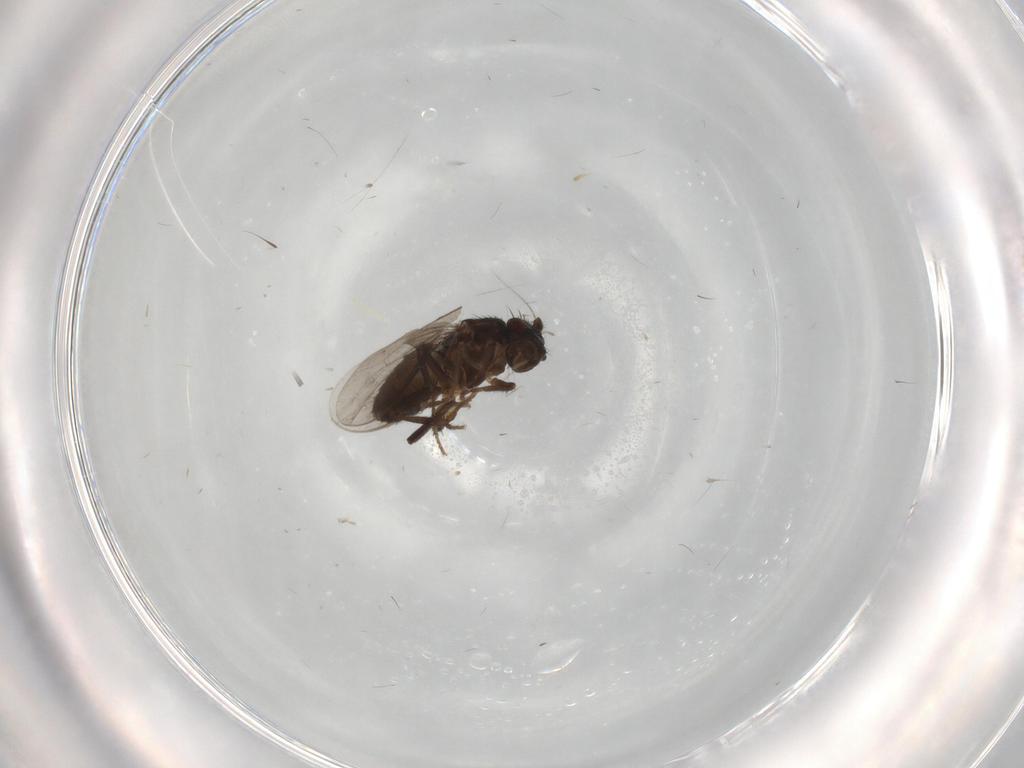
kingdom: Animalia
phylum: Arthropoda
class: Insecta
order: Diptera
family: Sphaeroceridae
